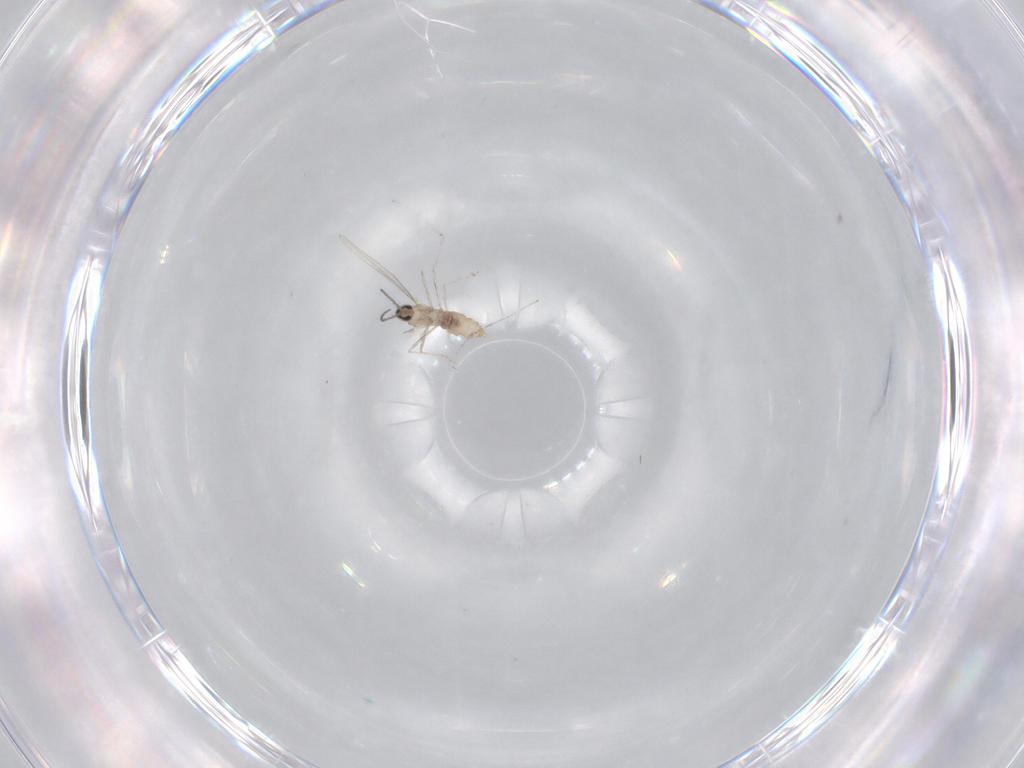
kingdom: Animalia
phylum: Arthropoda
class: Insecta
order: Diptera
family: Cecidomyiidae
